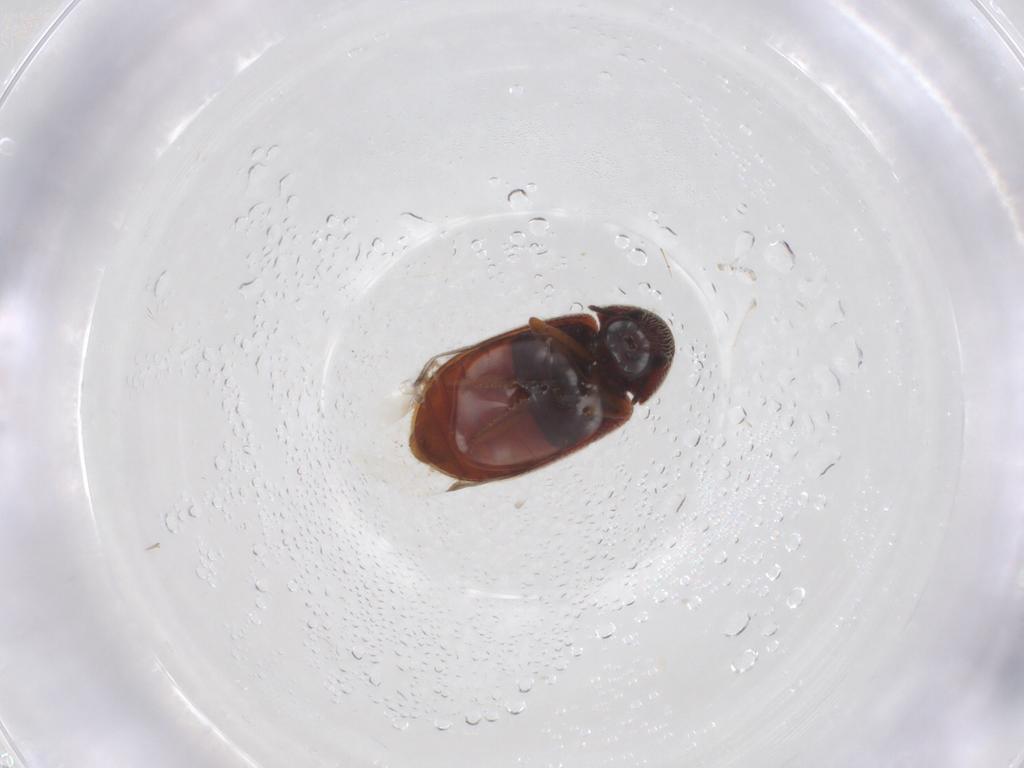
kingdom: Animalia
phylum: Arthropoda
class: Insecta
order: Coleoptera
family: Rhadalidae
